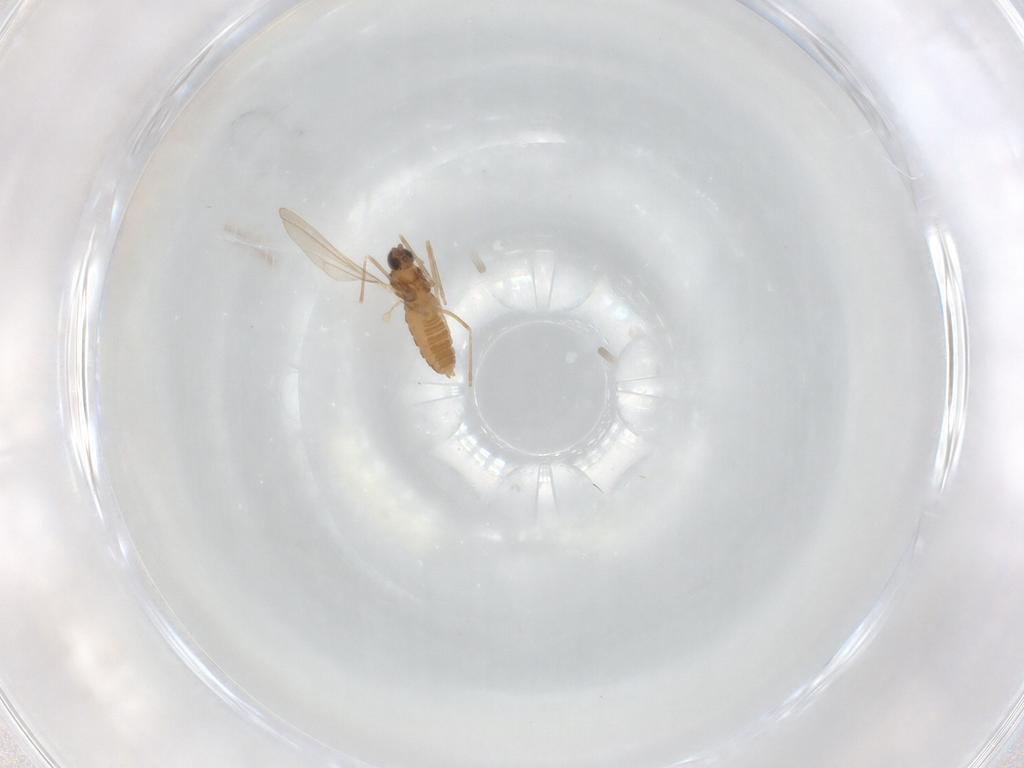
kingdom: Animalia
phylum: Arthropoda
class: Insecta
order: Diptera
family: Cecidomyiidae
